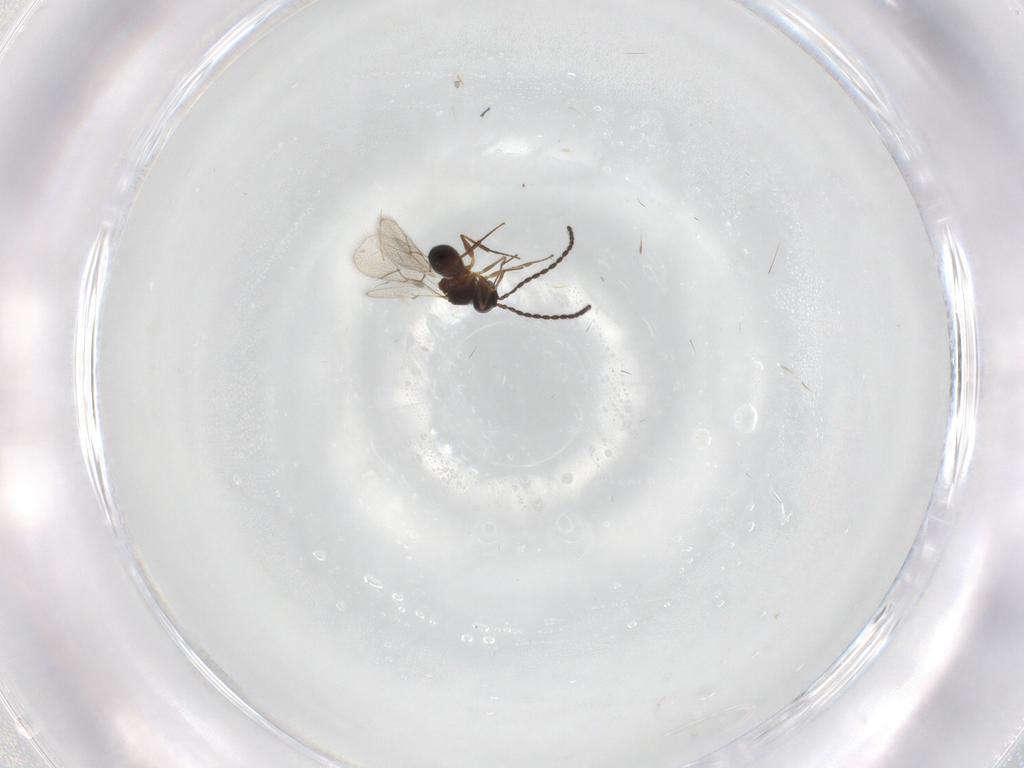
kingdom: Animalia
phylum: Arthropoda
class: Insecta
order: Hymenoptera
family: Figitidae
